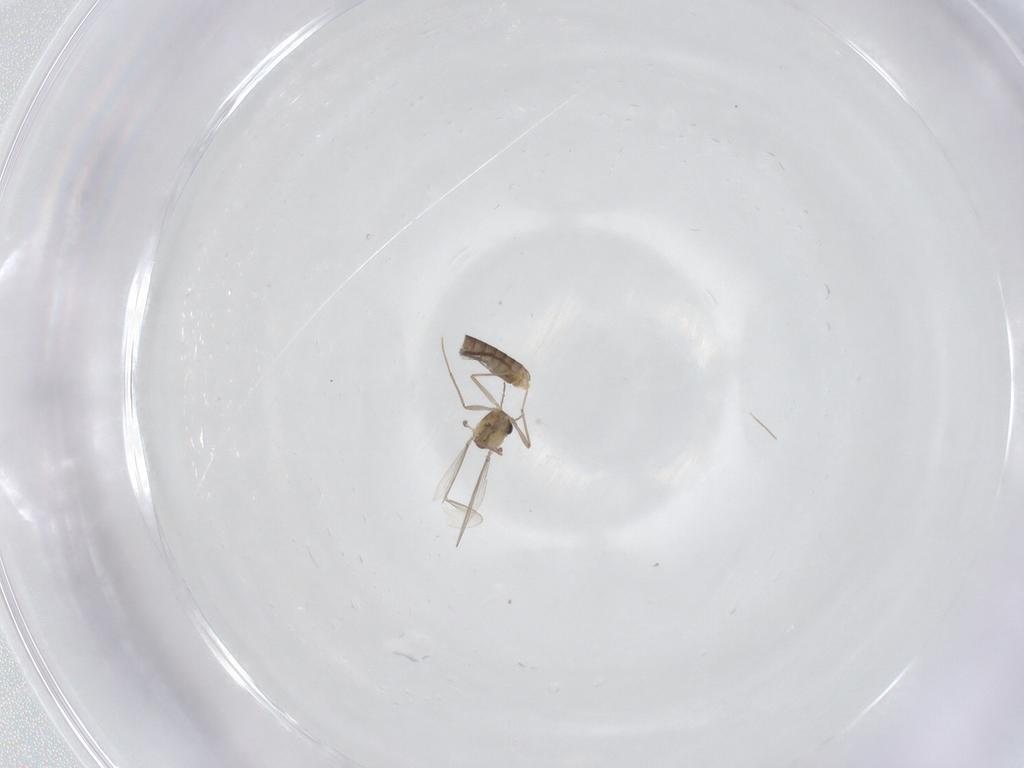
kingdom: Animalia
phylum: Arthropoda
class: Insecta
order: Diptera
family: Chironomidae
